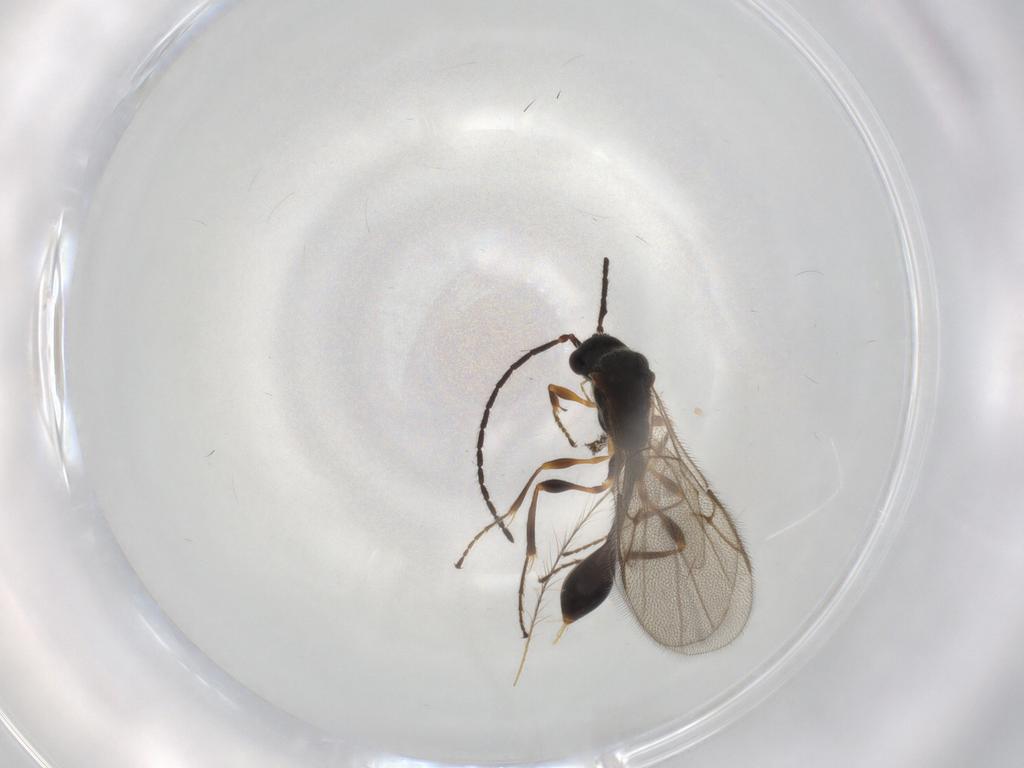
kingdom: Animalia
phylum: Arthropoda
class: Insecta
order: Hymenoptera
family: Diapriidae
